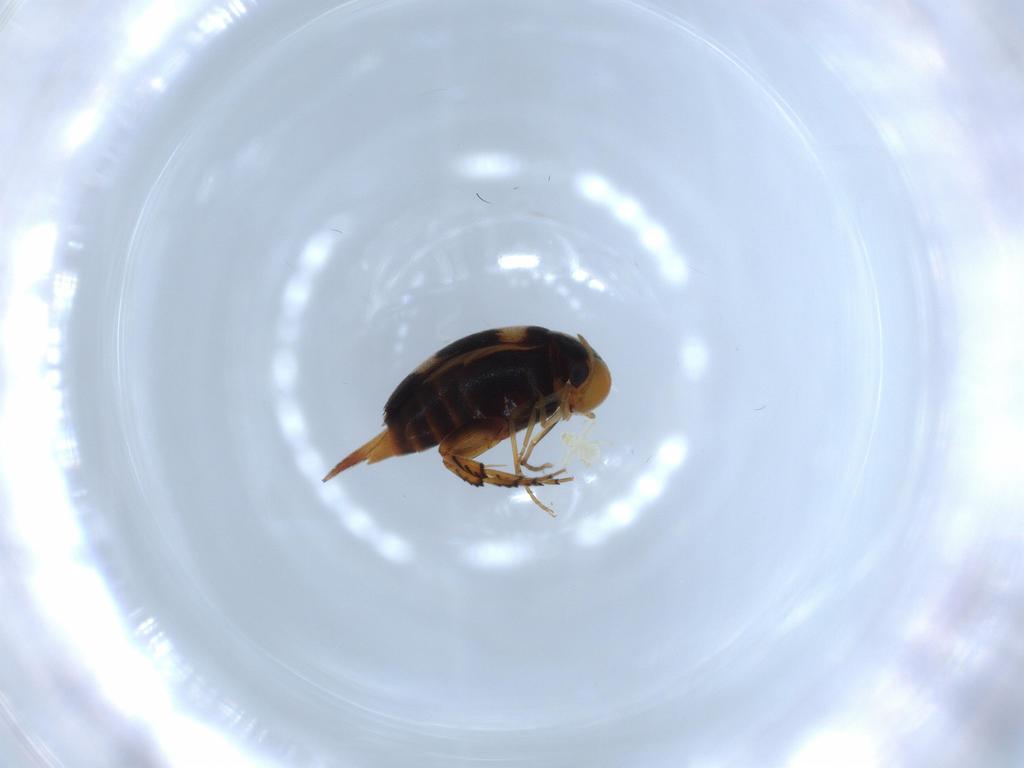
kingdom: Animalia
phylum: Arthropoda
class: Insecta
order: Coleoptera
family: Mordellidae
